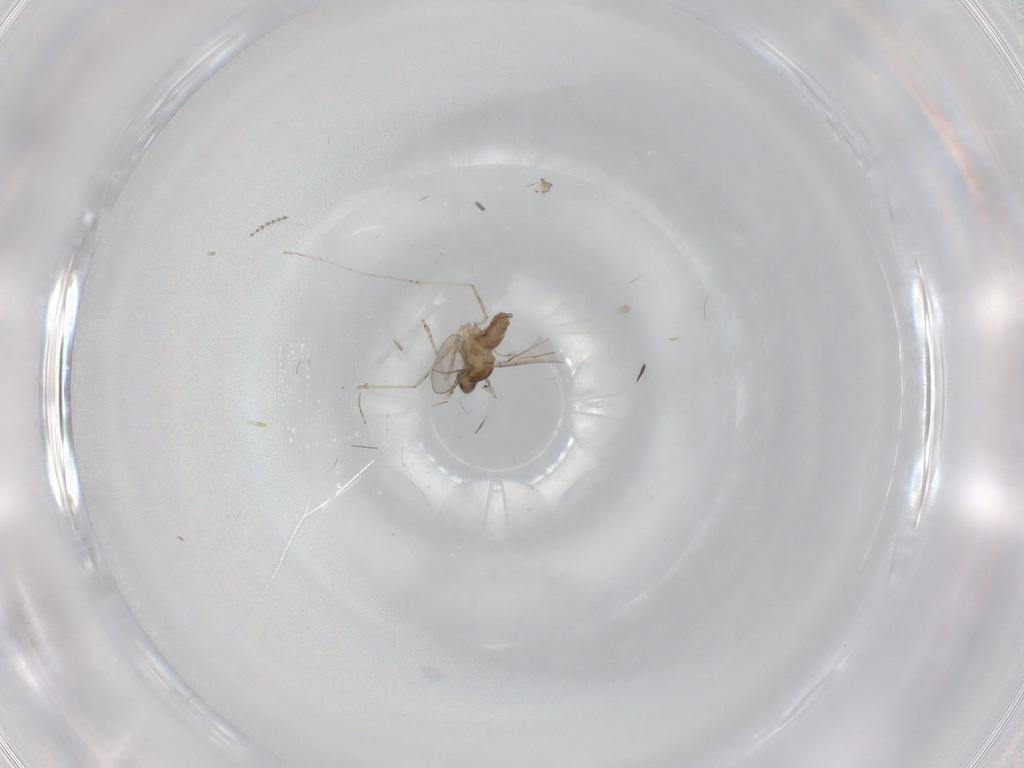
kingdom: Animalia
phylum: Arthropoda
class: Insecta
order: Diptera
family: Cecidomyiidae
